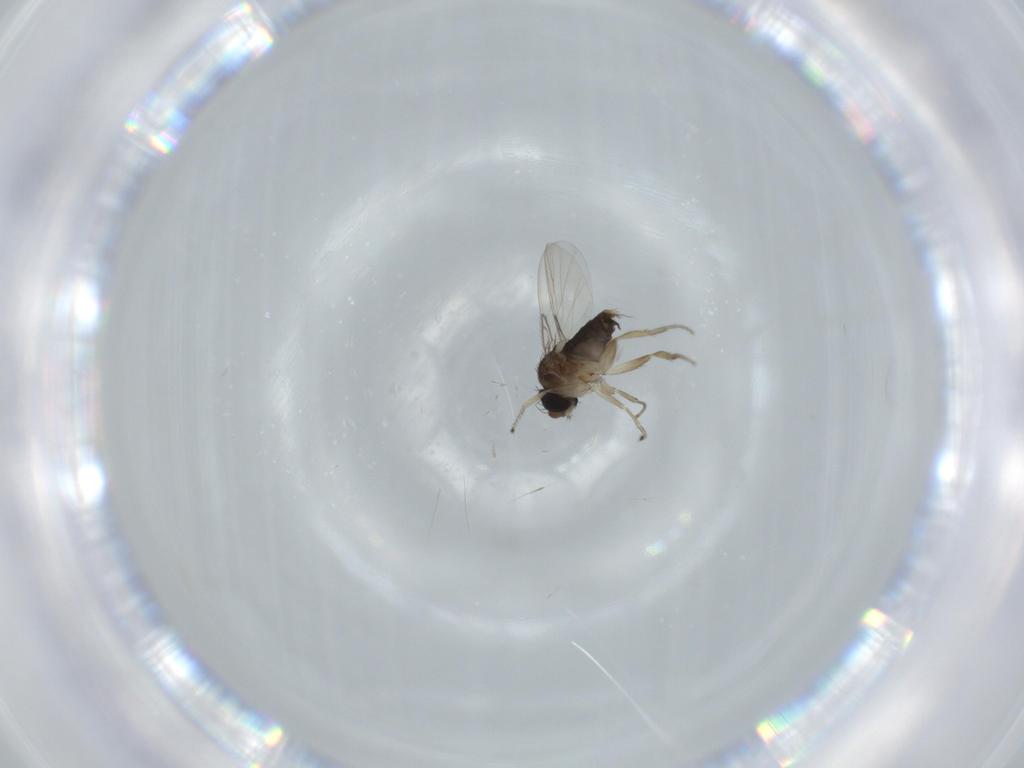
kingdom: Animalia
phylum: Arthropoda
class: Insecta
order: Diptera
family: Phoridae
